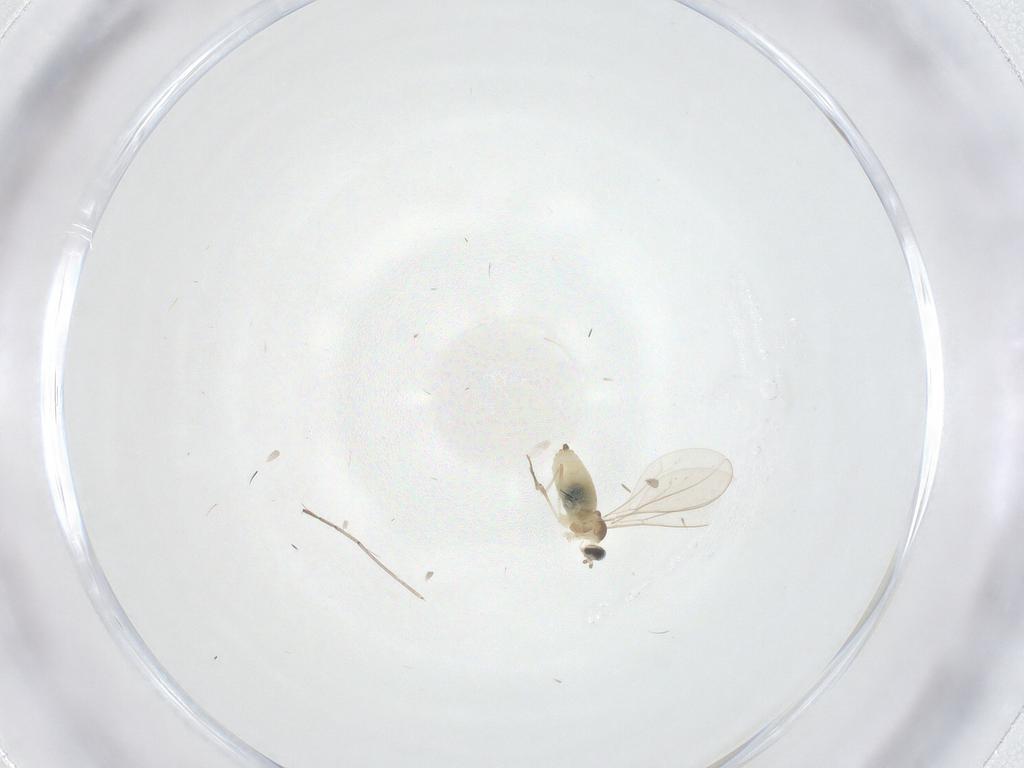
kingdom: Animalia
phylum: Arthropoda
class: Insecta
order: Diptera
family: Cecidomyiidae
